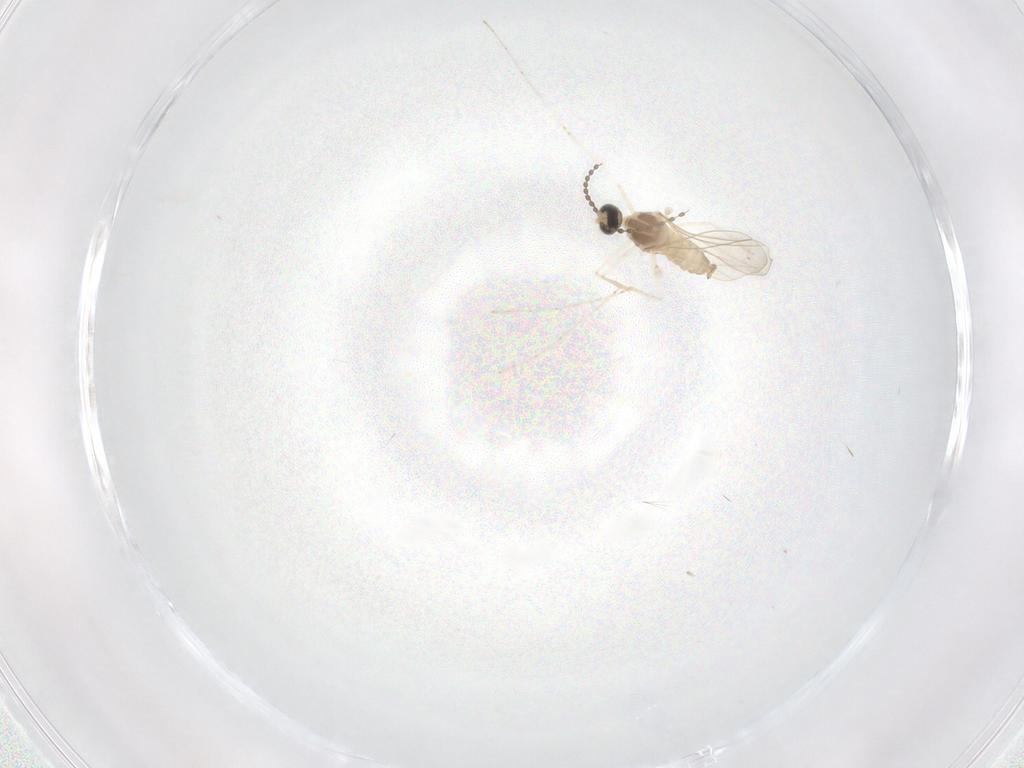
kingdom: Animalia
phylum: Arthropoda
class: Insecta
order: Diptera
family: Cecidomyiidae
